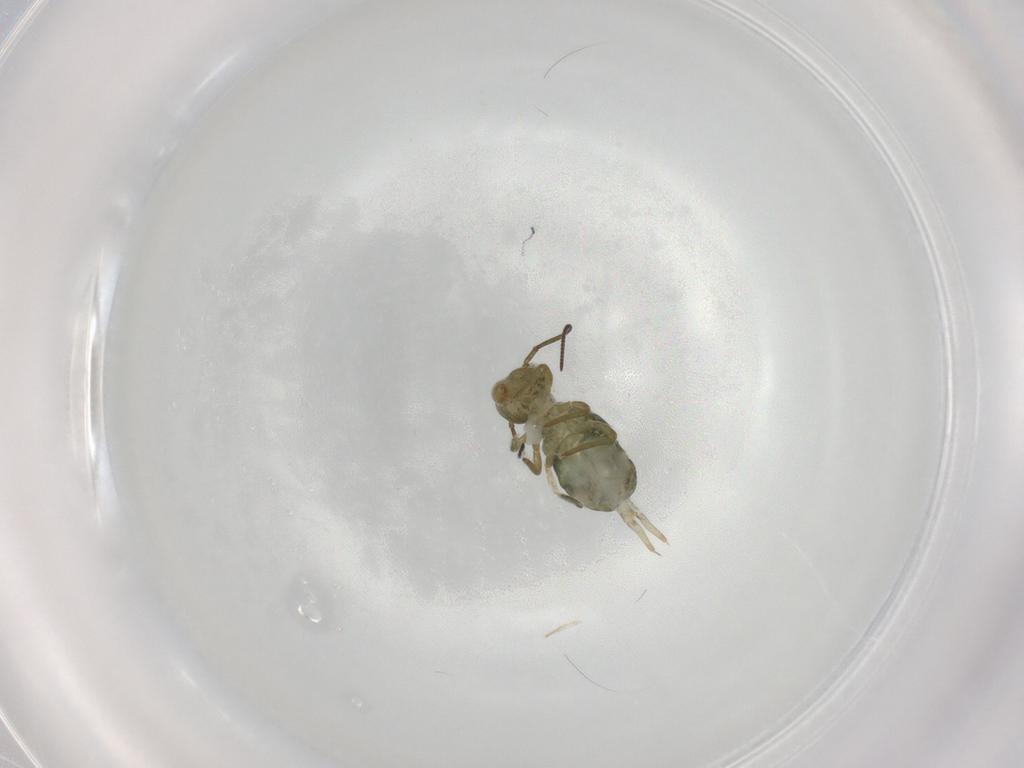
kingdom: Animalia
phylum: Arthropoda
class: Collembola
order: Symphypleona
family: Sminthuridae
